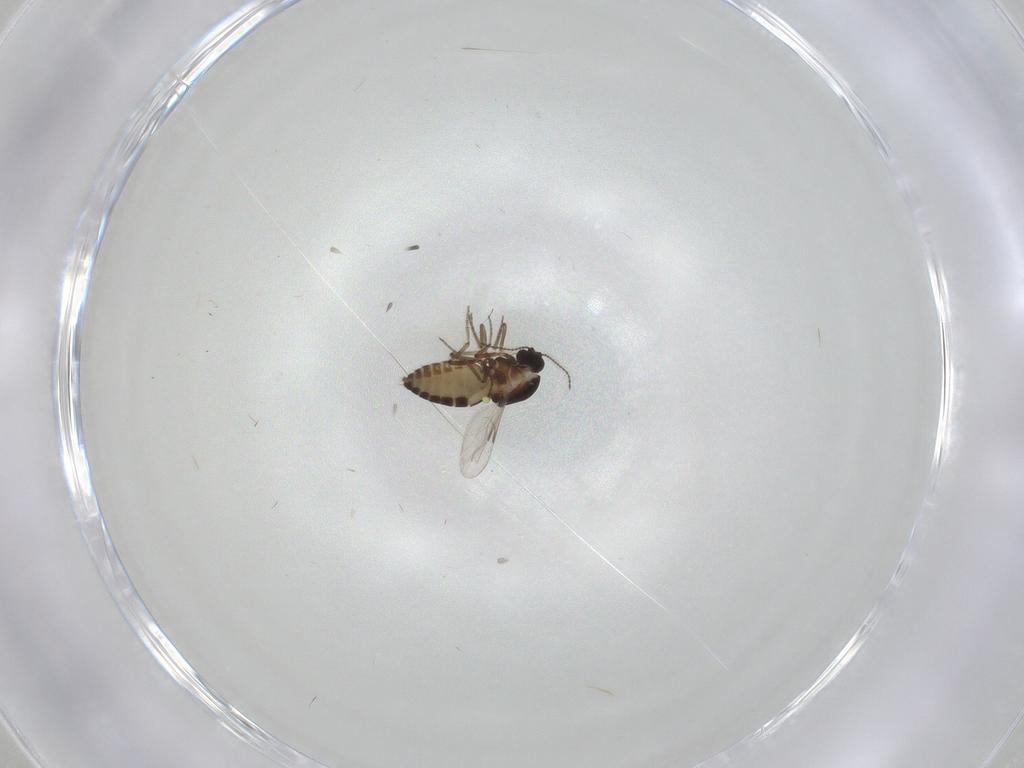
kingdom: Animalia
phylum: Arthropoda
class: Insecta
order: Diptera
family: Ceratopogonidae
